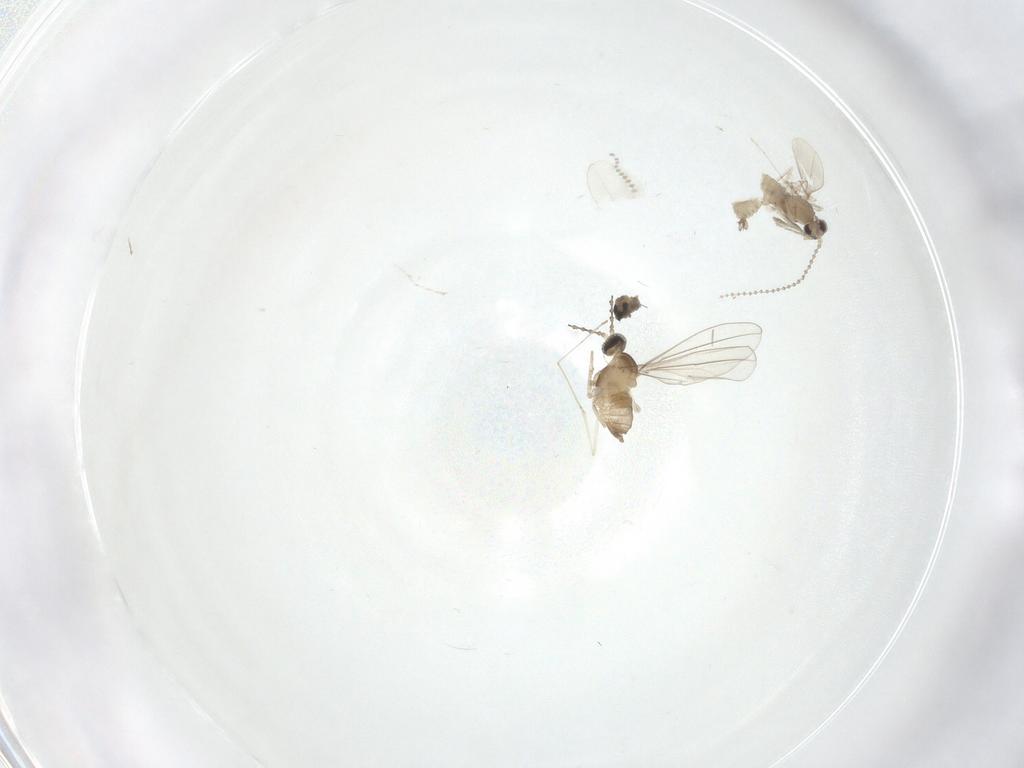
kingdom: Animalia
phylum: Arthropoda
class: Insecta
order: Diptera
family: Cecidomyiidae
